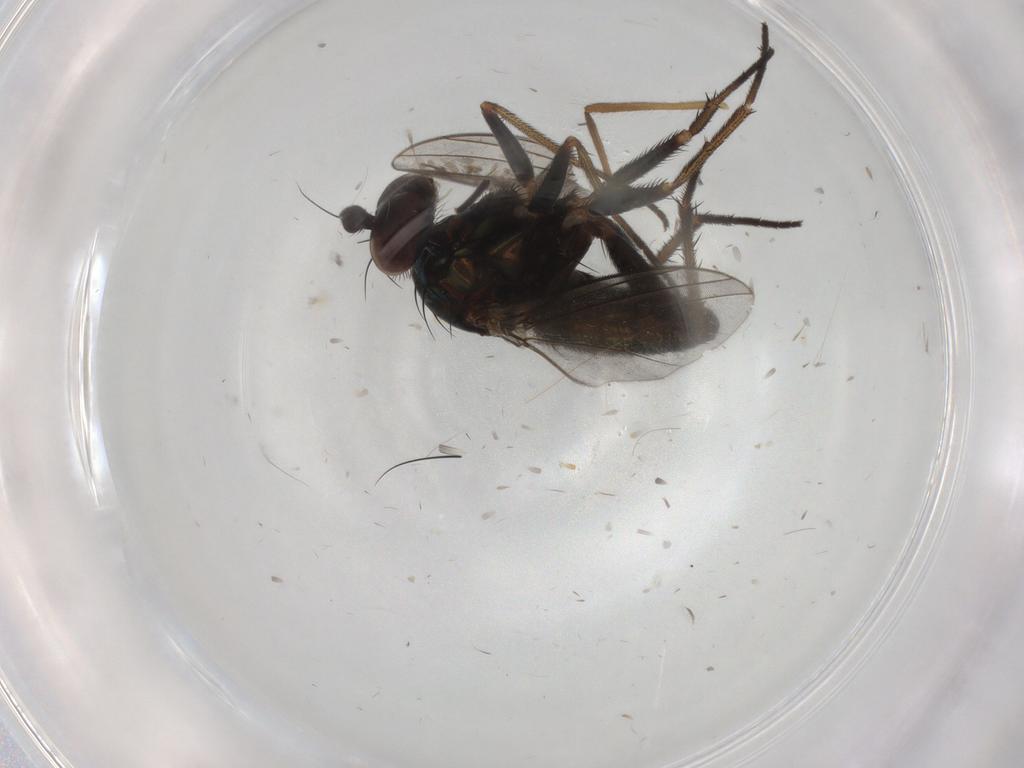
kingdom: Animalia
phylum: Arthropoda
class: Insecta
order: Diptera
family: Dolichopodidae
